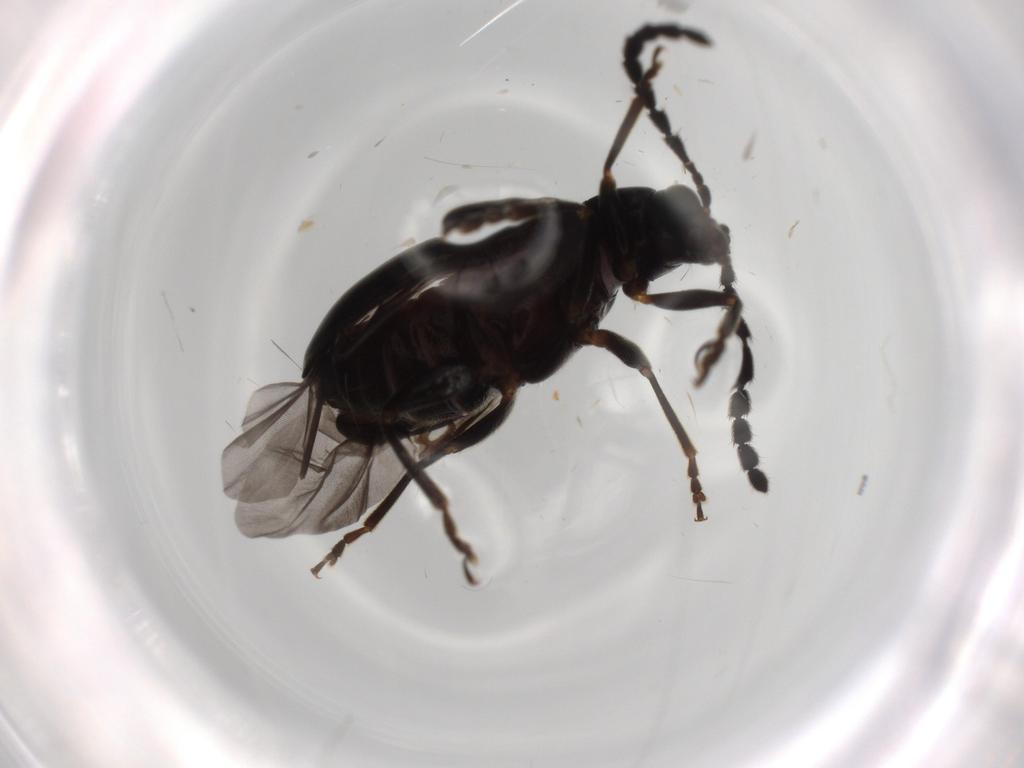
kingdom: Animalia
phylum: Arthropoda
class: Insecta
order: Coleoptera
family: Chrysomelidae
